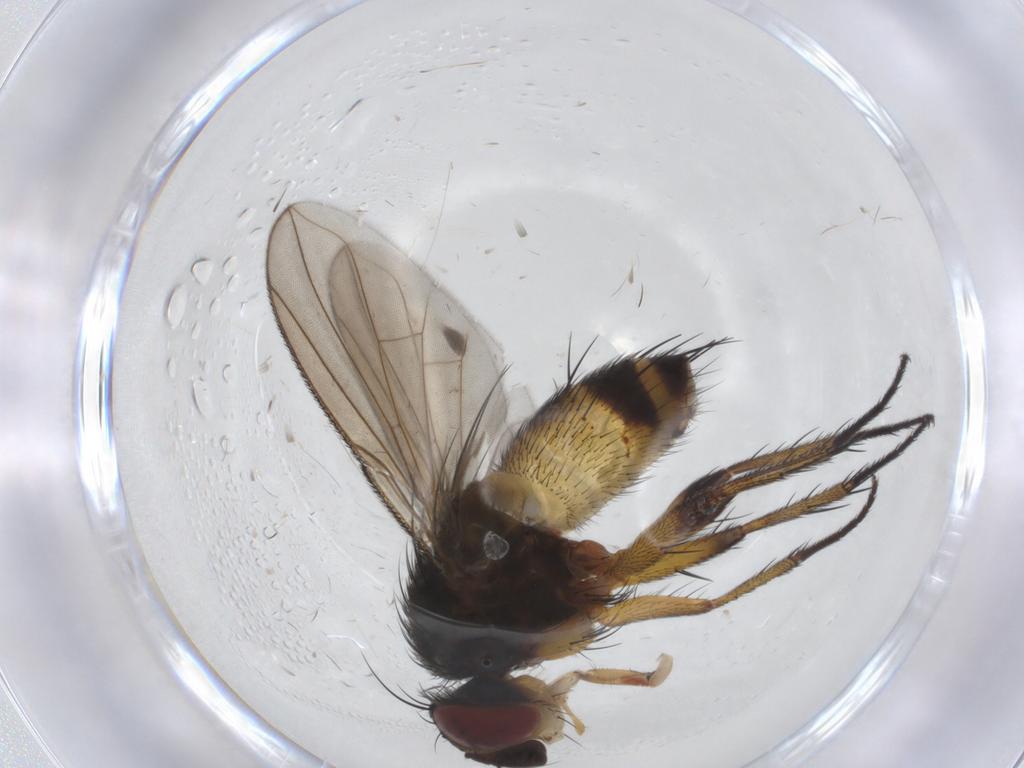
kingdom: Animalia
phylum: Arthropoda
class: Insecta
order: Diptera
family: Tachinidae
